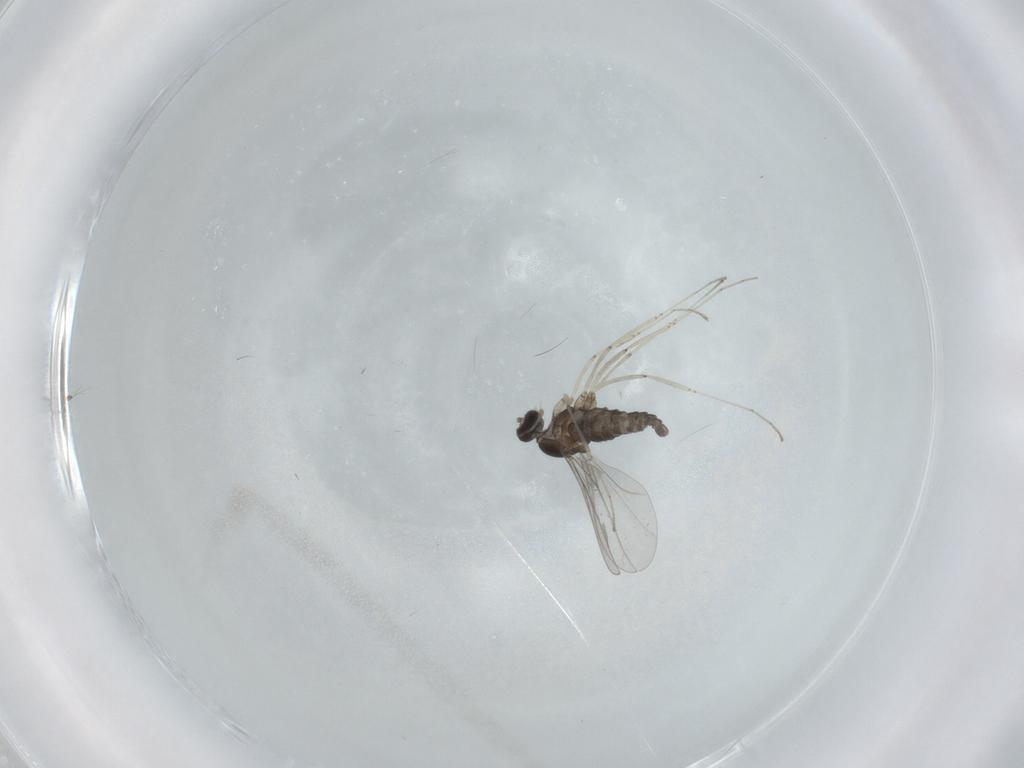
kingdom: Animalia
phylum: Arthropoda
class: Insecta
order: Diptera
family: Cecidomyiidae
